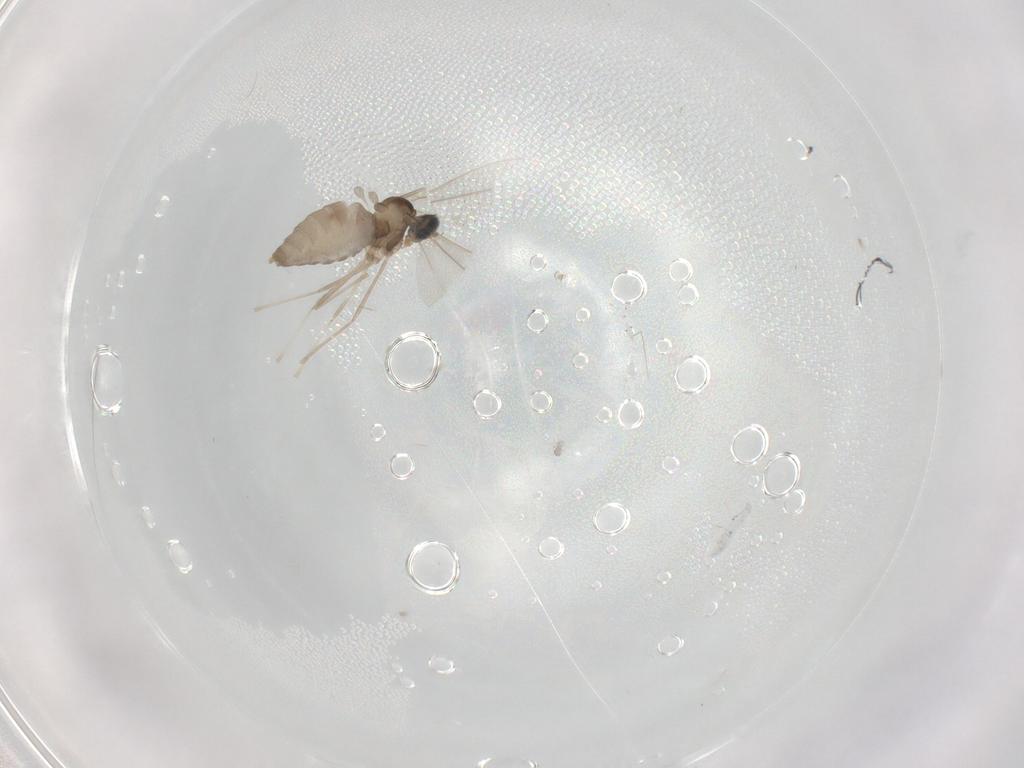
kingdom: Animalia
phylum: Arthropoda
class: Insecta
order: Diptera
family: Cecidomyiidae
